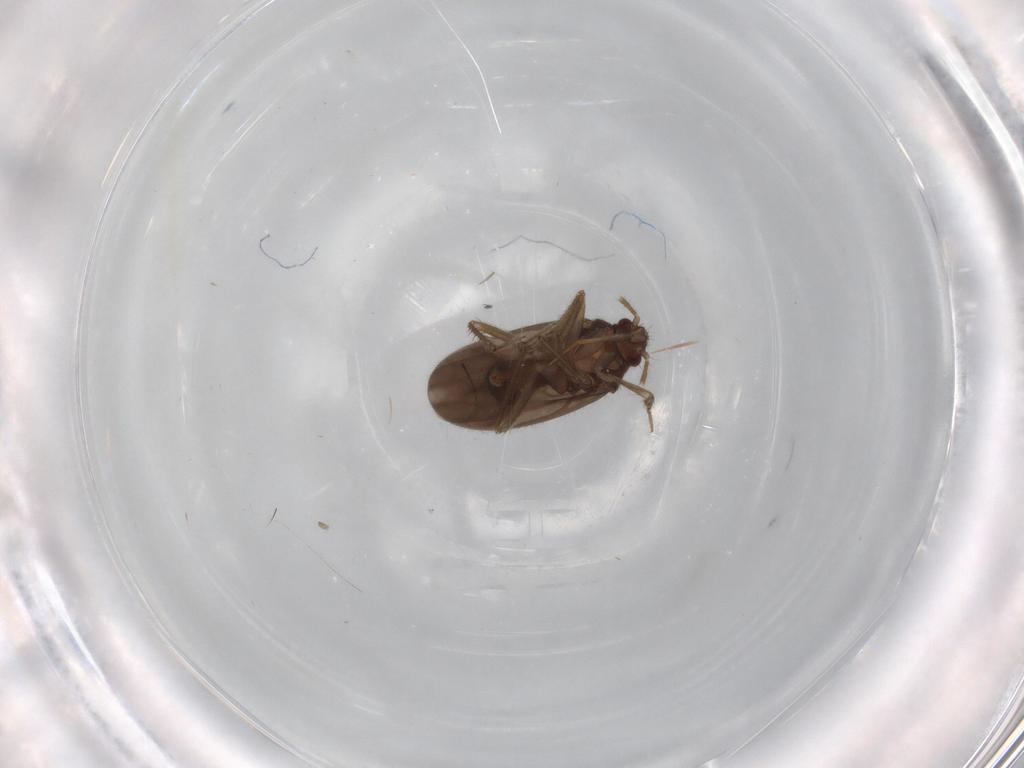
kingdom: Animalia
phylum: Arthropoda
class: Insecta
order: Hemiptera
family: Ceratocombidae
